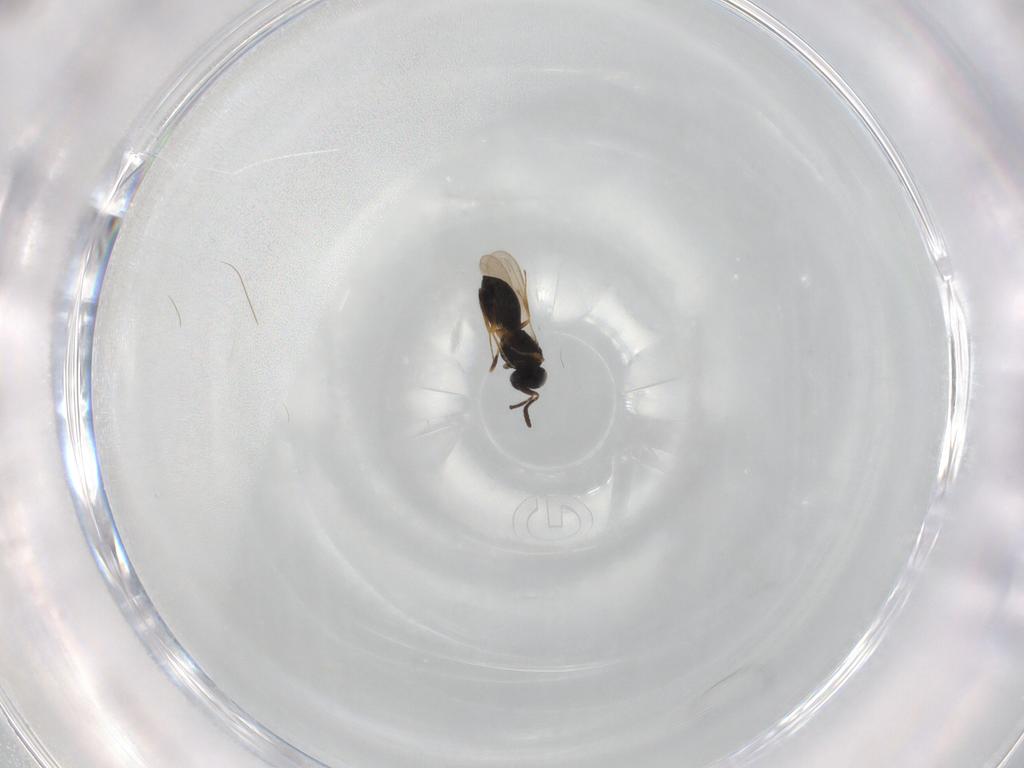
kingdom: Animalia
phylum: Arthropoda
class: Insecta
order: Hymenoptera
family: Scelionidae
